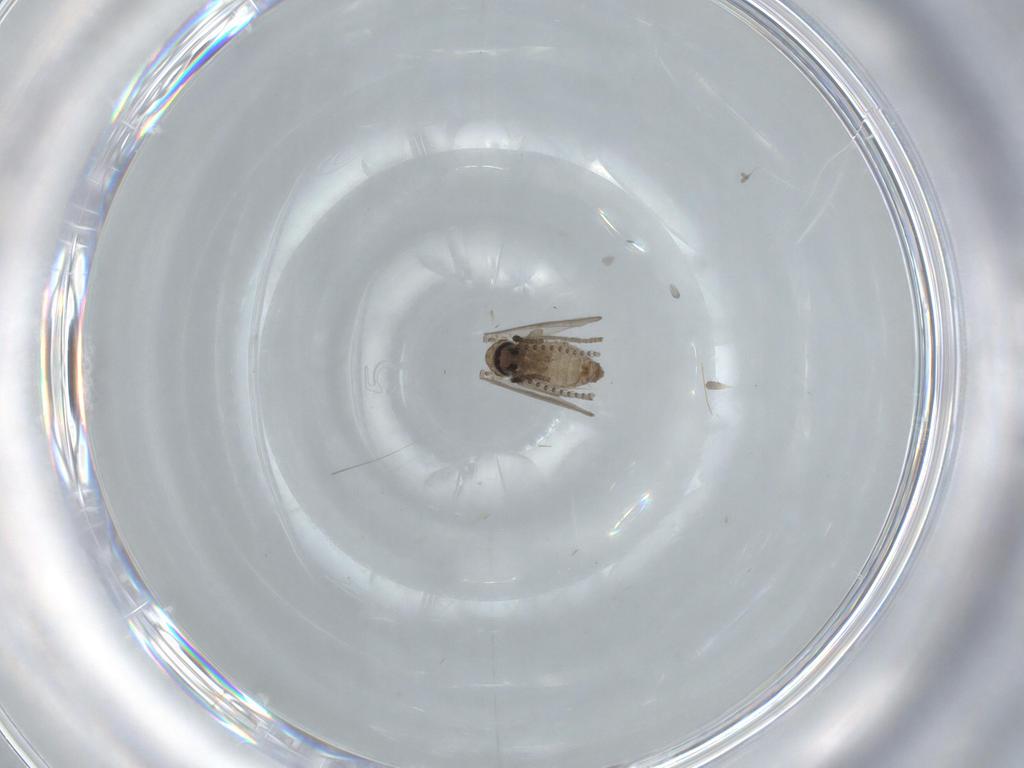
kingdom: Animalia
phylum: Arthropoda
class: Insecta
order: Diptera
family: Psychodidae
